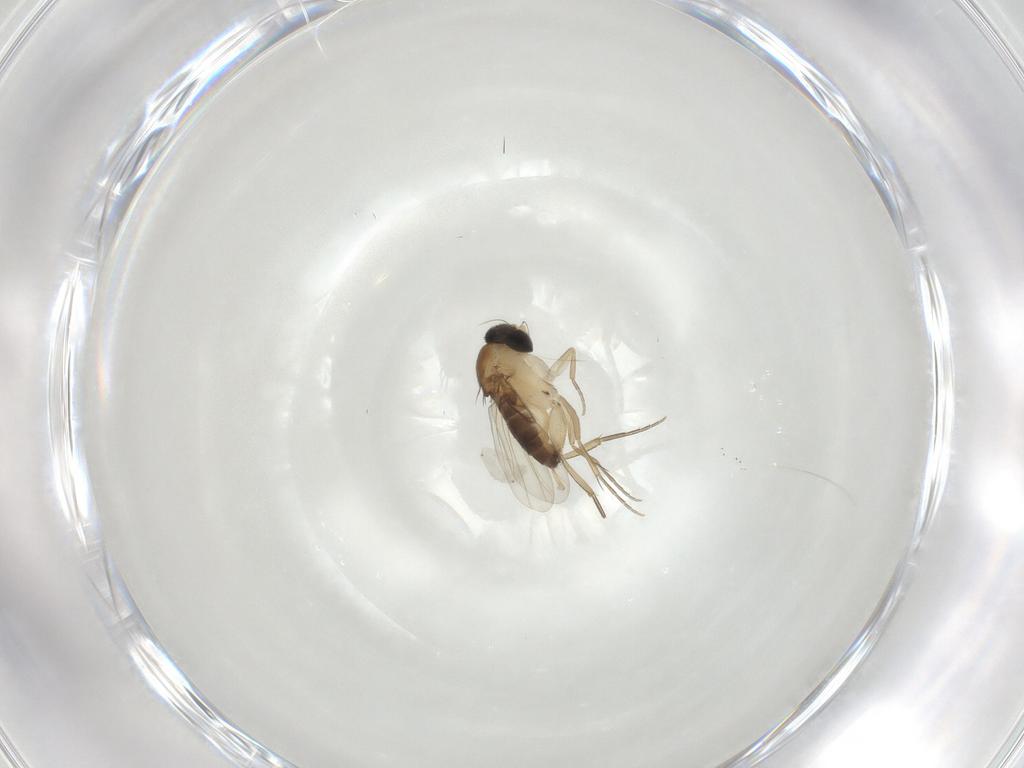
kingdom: Animalia
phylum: Arthropoda
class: Insecta
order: Diptera
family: Phoridae
